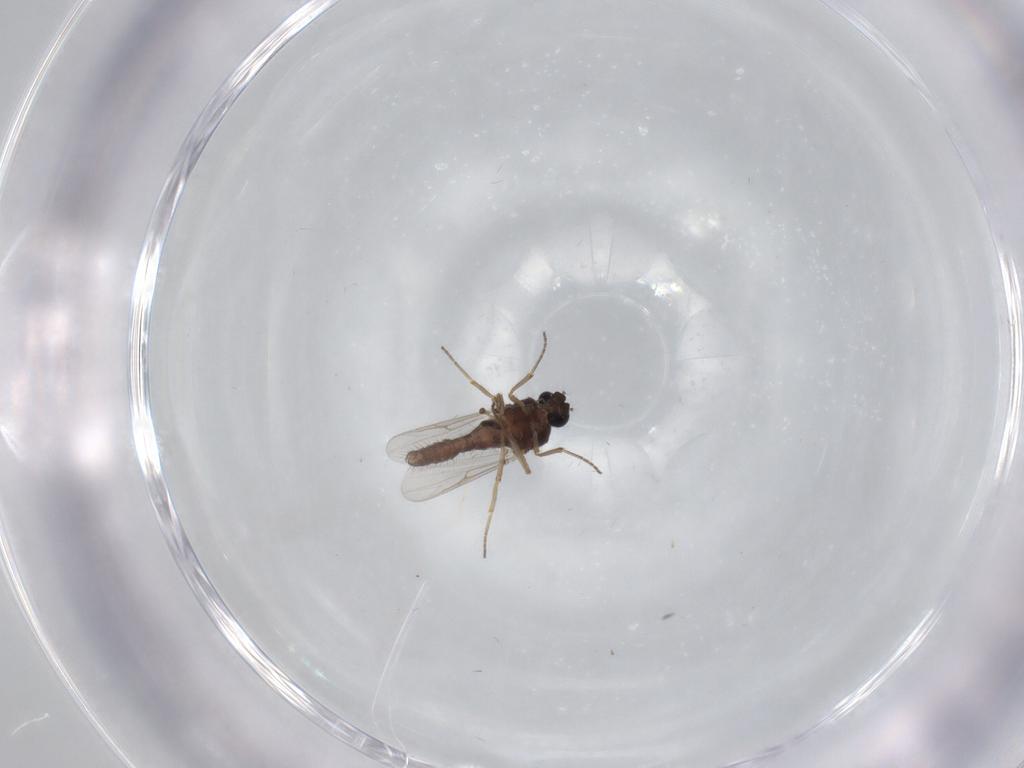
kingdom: Animalia
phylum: Arthropoda
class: Insecta
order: Diptera
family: Ceratopogonidae
